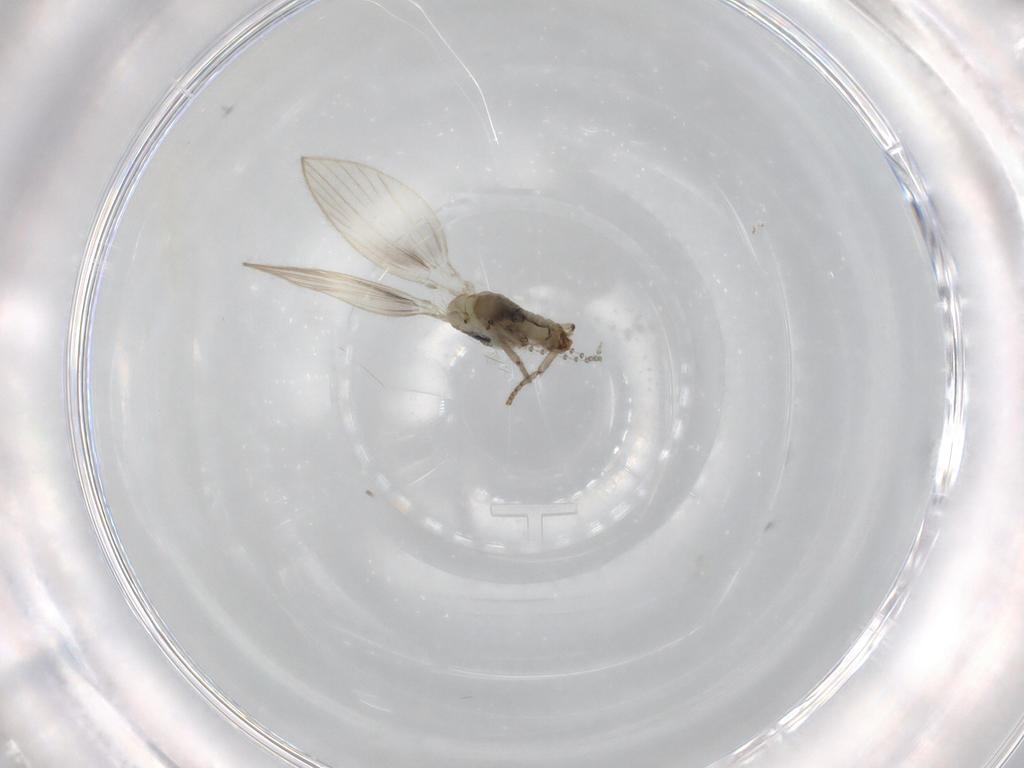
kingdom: Animalia
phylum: Arthropoda
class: Insecta
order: Diptera
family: Psychodidae
